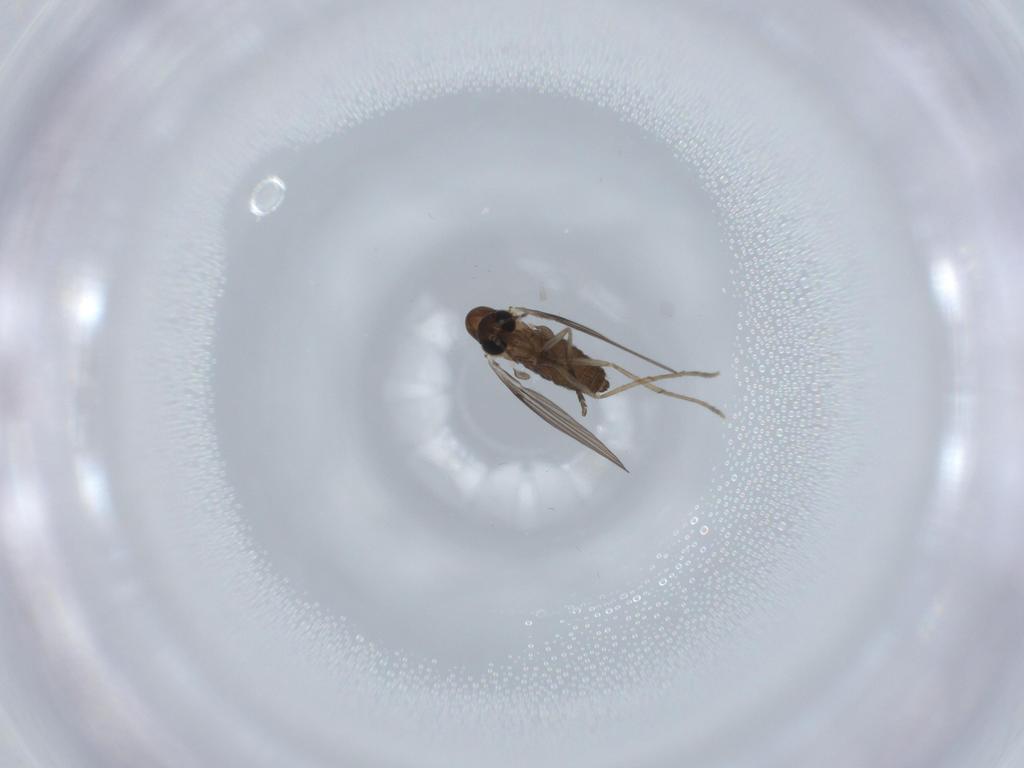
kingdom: Animalia
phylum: Arthropoda
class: Insecta
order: Diptera
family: Psychodidae
